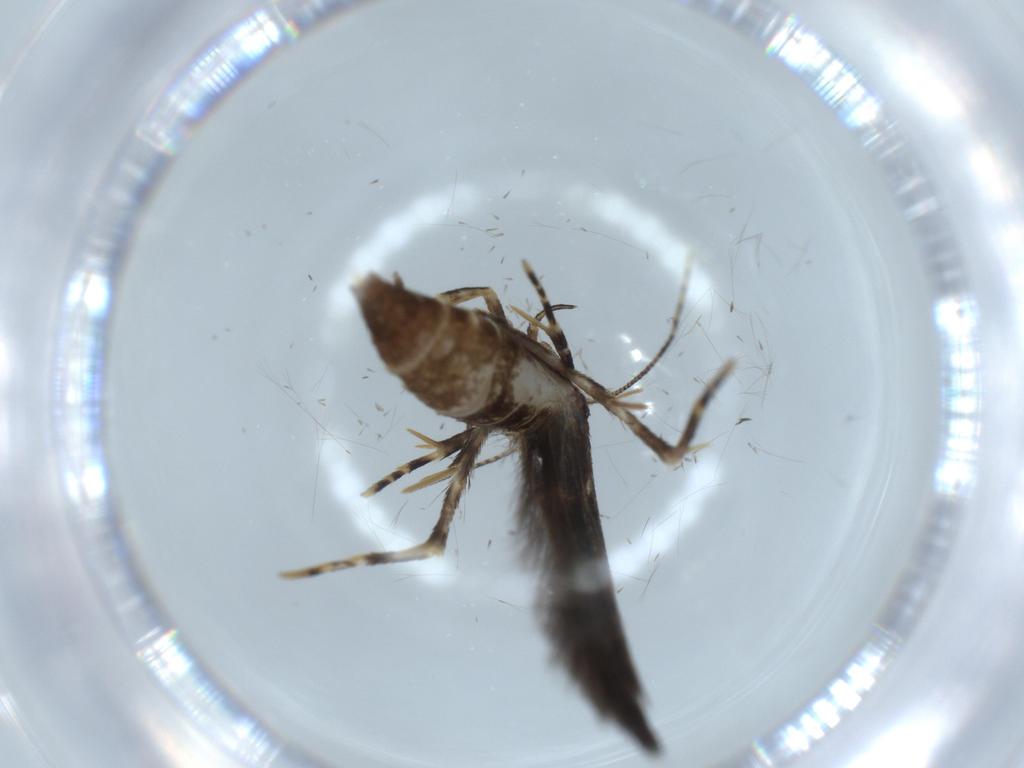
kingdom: Animalia
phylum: Arthropoda
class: Insecta
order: Lepidoptera
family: Cosmopterigidae
